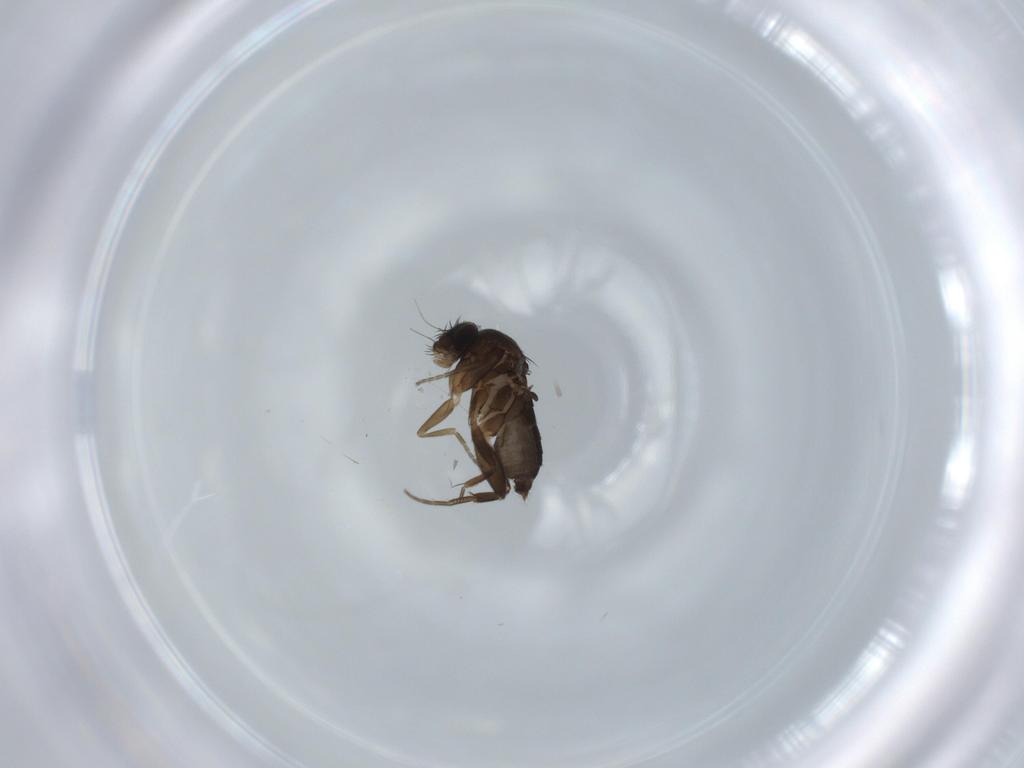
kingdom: Animalia
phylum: Arthropoda
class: Insecta
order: Diptera
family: Phoridae
